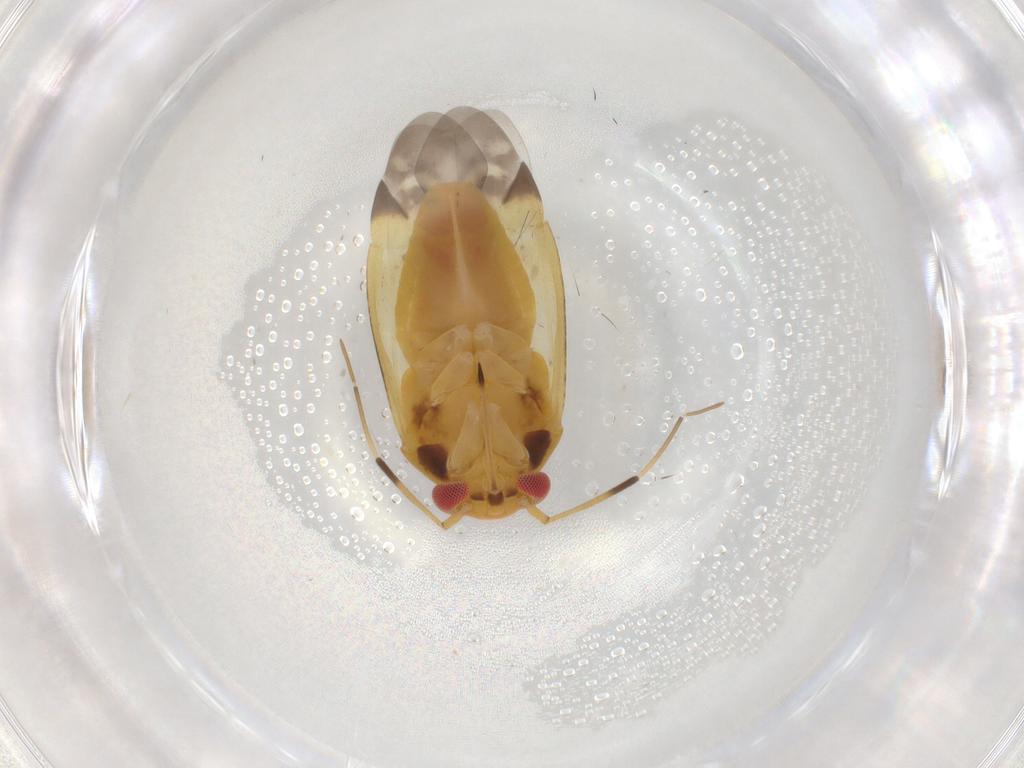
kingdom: Animalia
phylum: Arthropoda
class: Insecta
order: Hemiptera
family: Miridae
